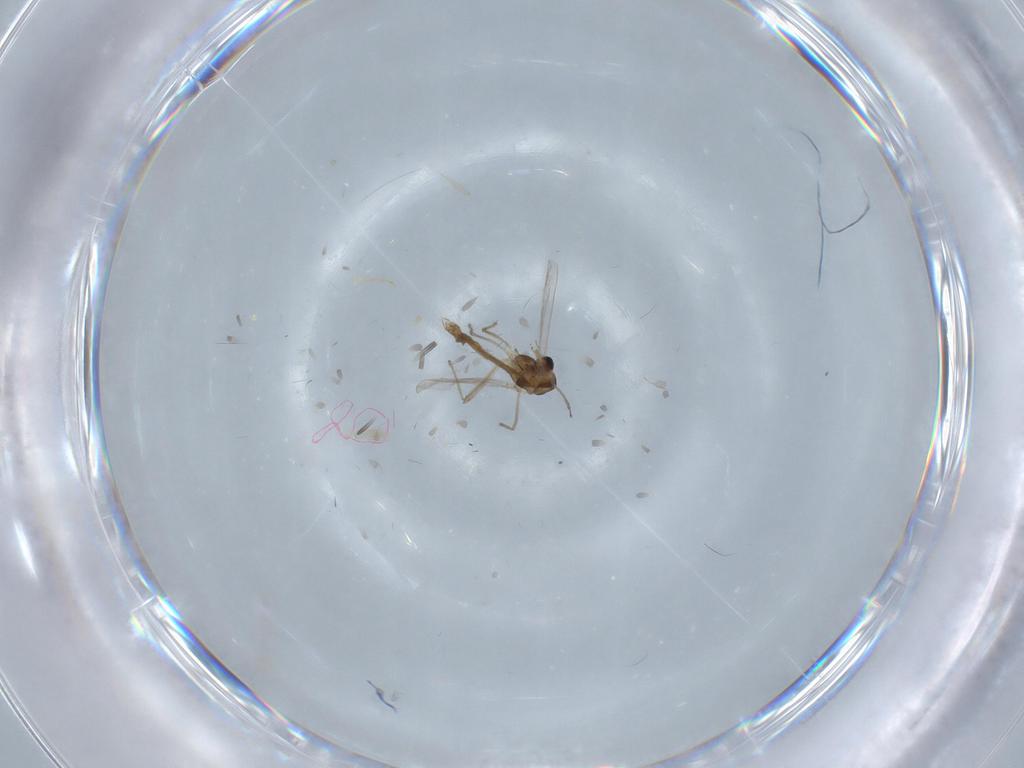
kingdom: Animalia
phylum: Arthropoda
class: Insecta
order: Diptera
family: Chironomidae
